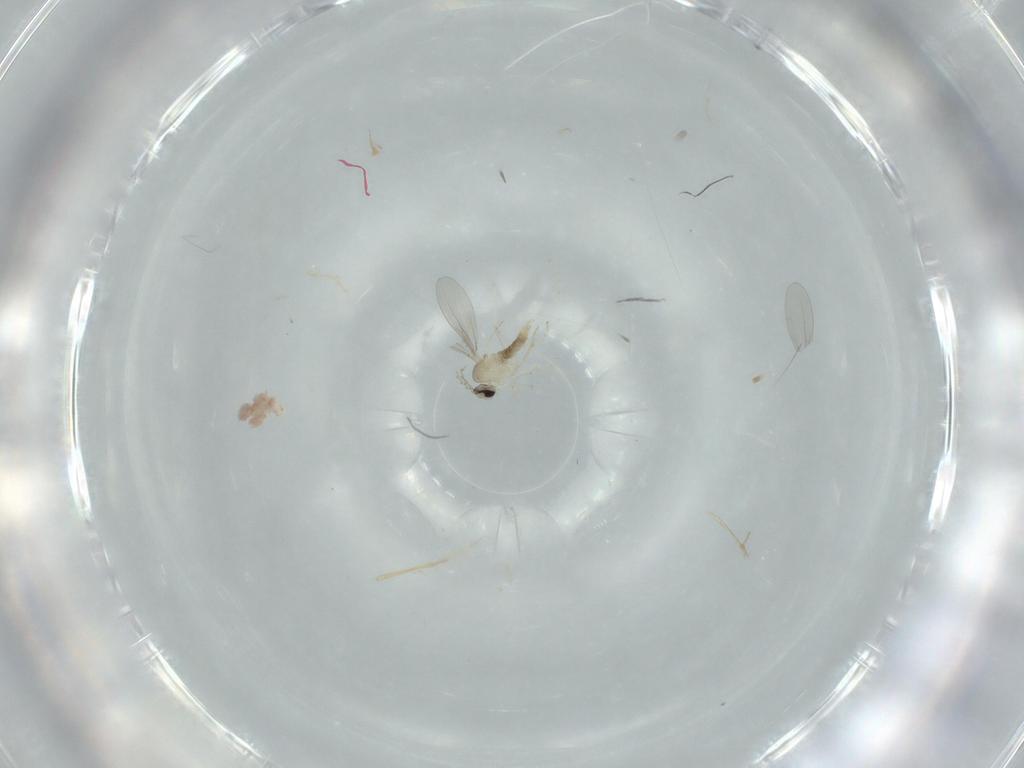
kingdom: Animalia
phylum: Arthropoda
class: Insecta
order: Diptera
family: Cecidomyiidae
